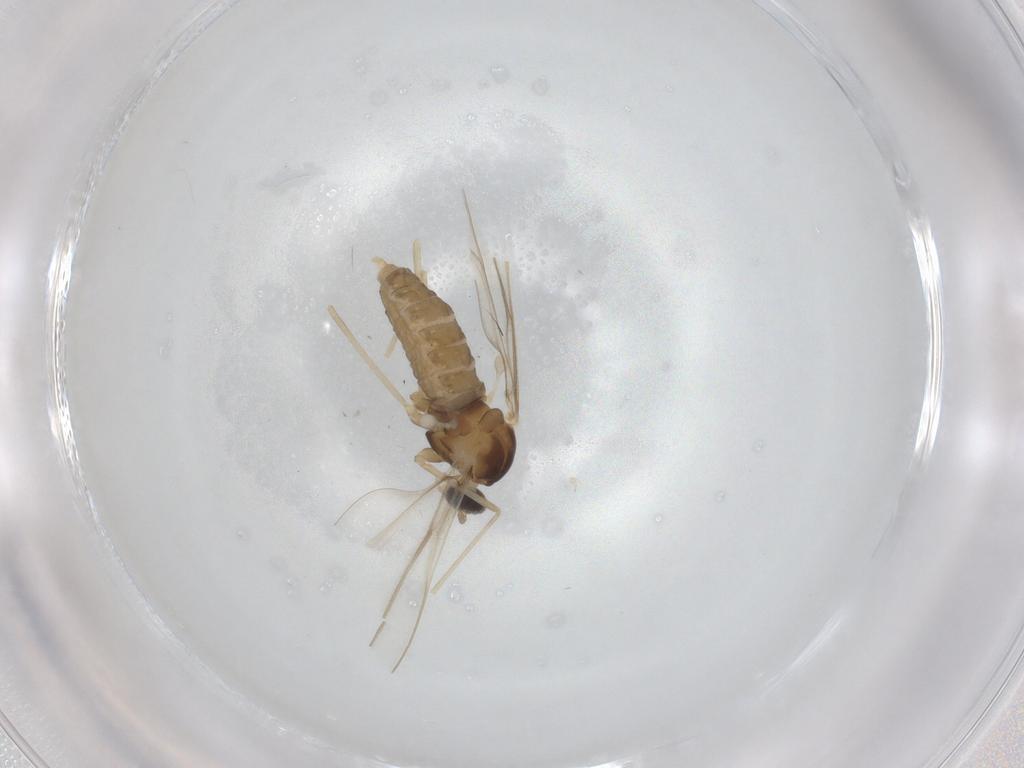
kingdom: Animalia
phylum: Arthropoda
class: Insecta
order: Diptera
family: Cecidomyiidae
